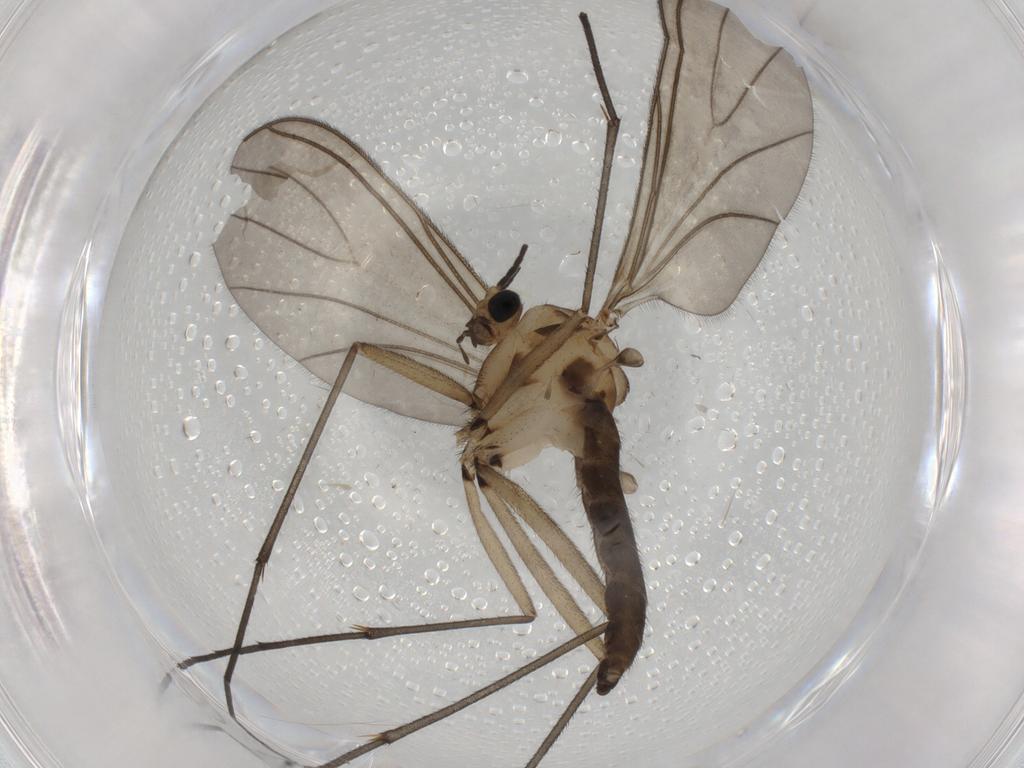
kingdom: Animalia
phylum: Arthropoda
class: Insecta
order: Diptera
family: Sciaridae
